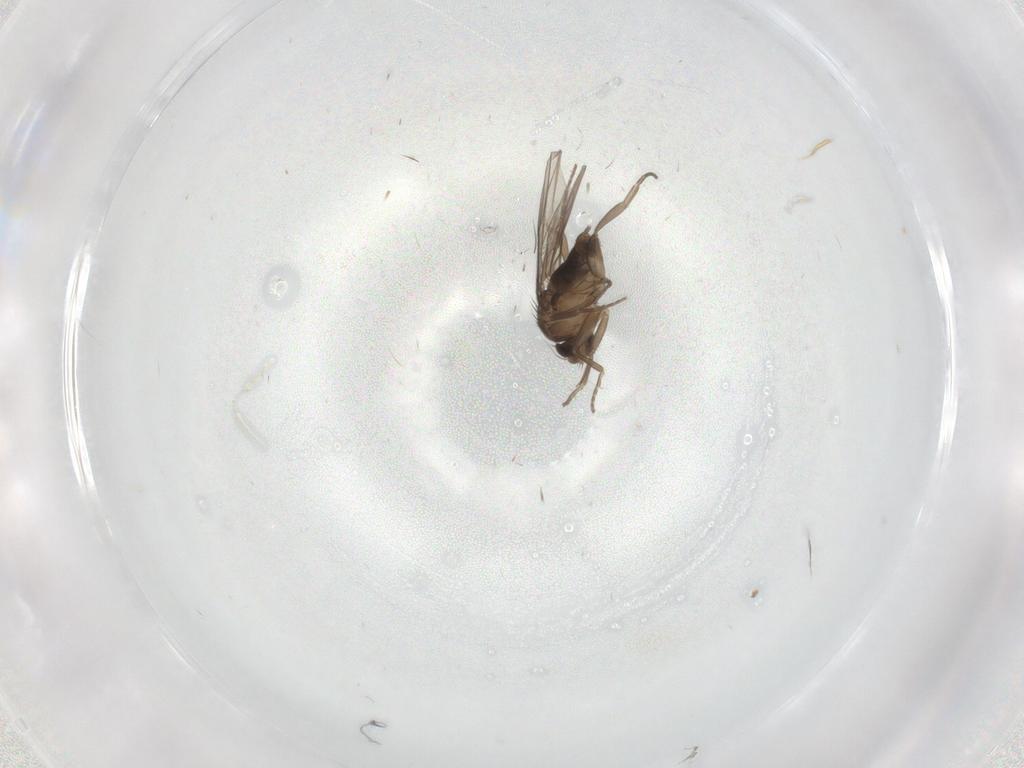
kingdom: Animalia
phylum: Arthropoda
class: Insecta
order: Diptera
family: Phoridae
